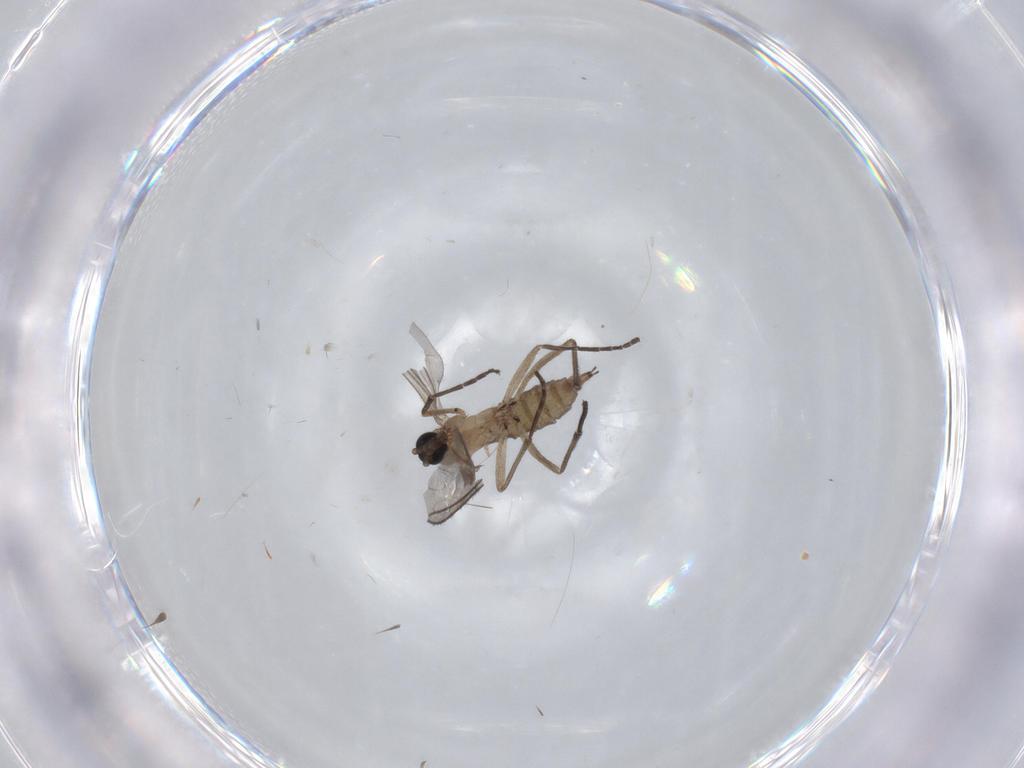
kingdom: Animalia
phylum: Arthropoda
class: Insecta
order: Diptera
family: Sciaridae
